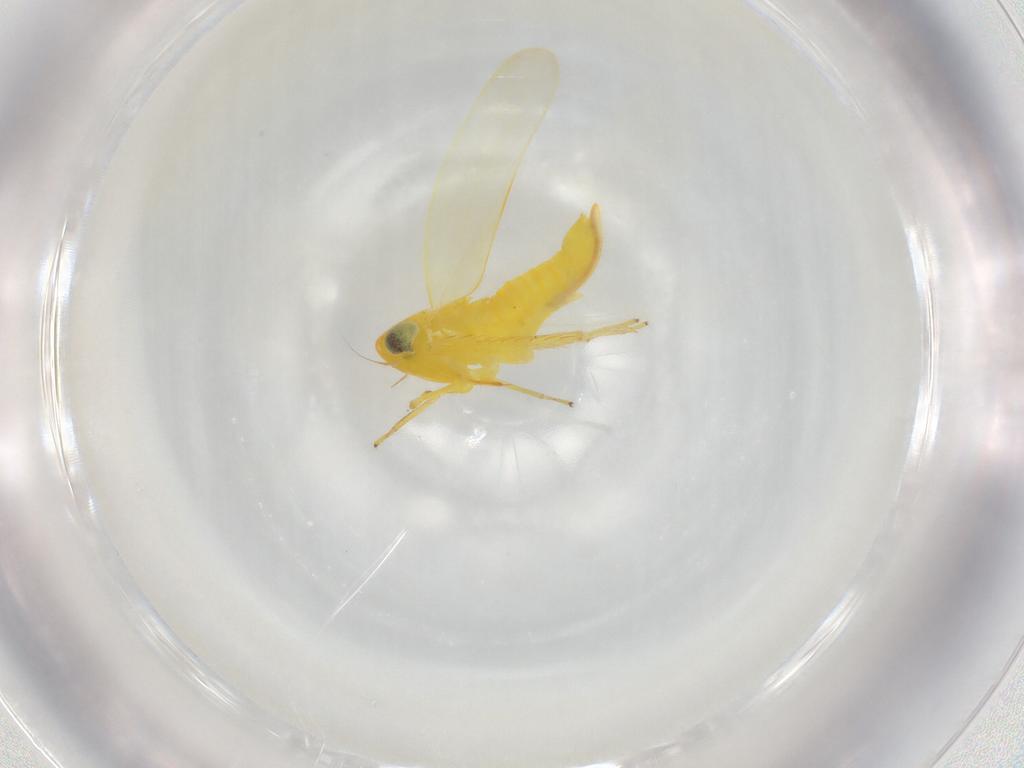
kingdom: Animalia
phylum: Arthropoda
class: Insecta
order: Hemiptera
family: Cicadellidae
